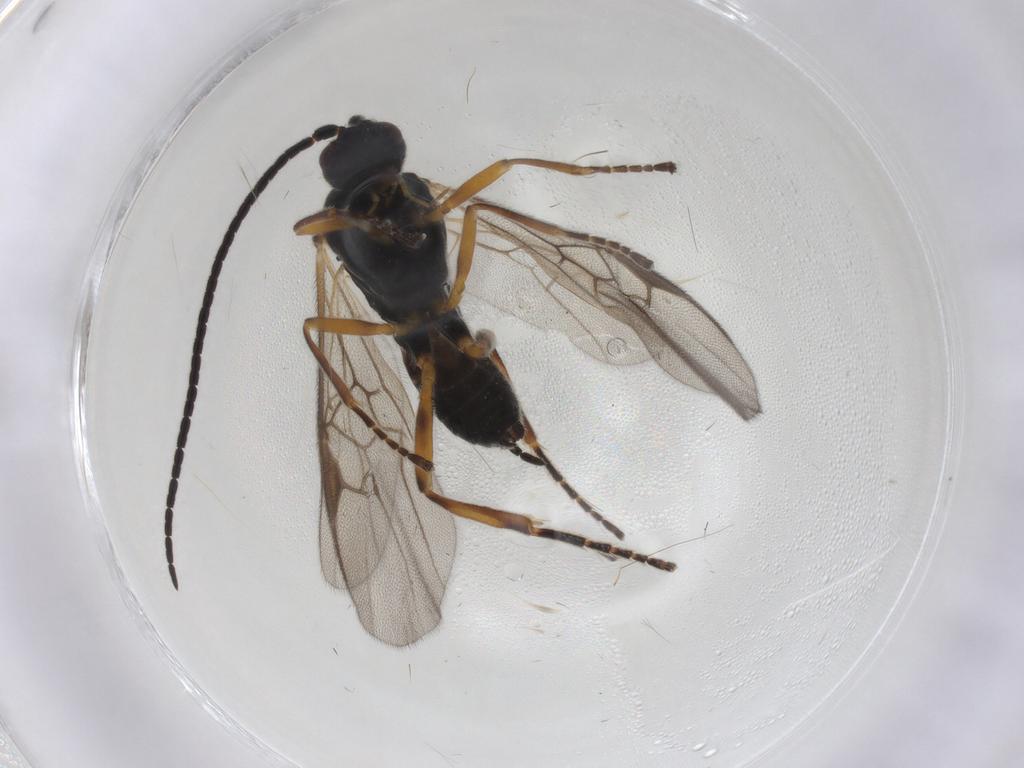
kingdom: Animalia
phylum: Arthropoda
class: Insecta
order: Hymenoptera
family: Braconidae
